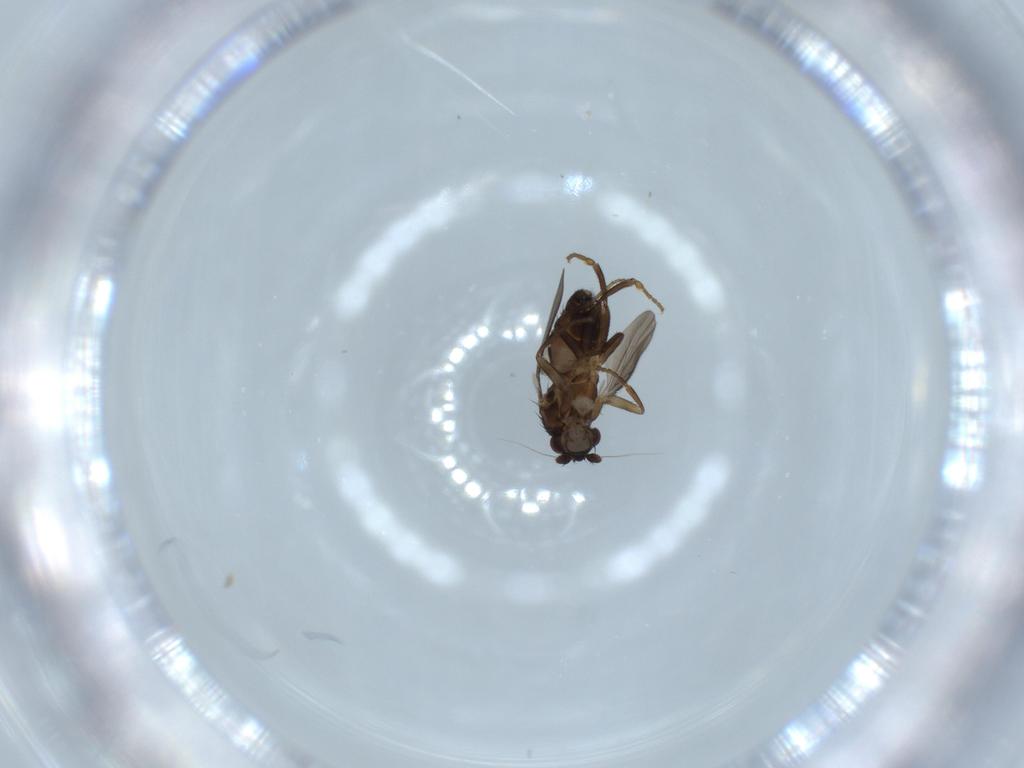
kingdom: Animalia
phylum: Arthropoda
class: Insecta
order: Diptera
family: Sphaeroceridae
